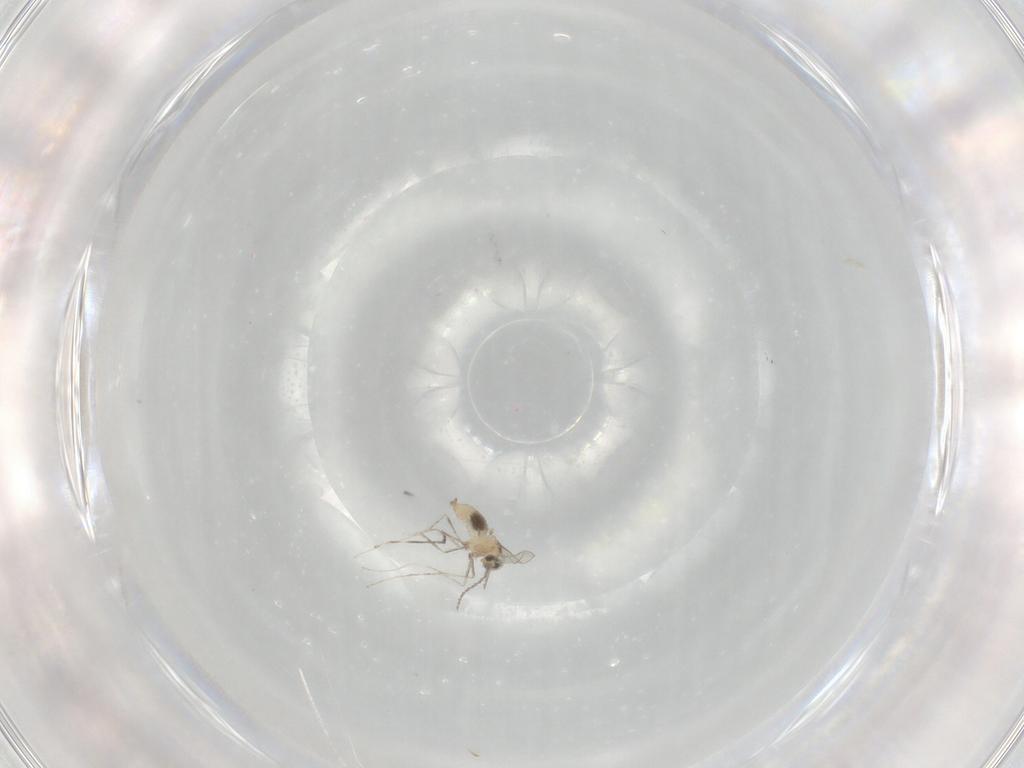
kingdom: Animalia
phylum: Arthropoda
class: Insecta
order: Diptera
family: Cecidomyiidae
